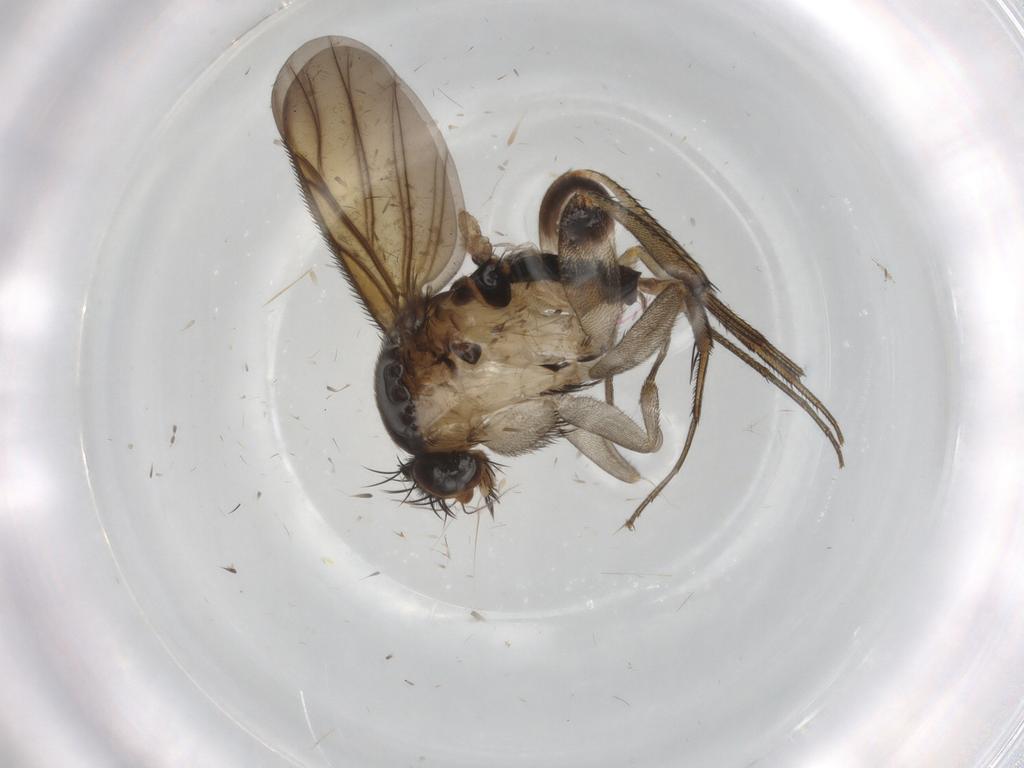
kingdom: Animalia
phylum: Arthropoda
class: Insecta
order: Diptera
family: Phoridae
